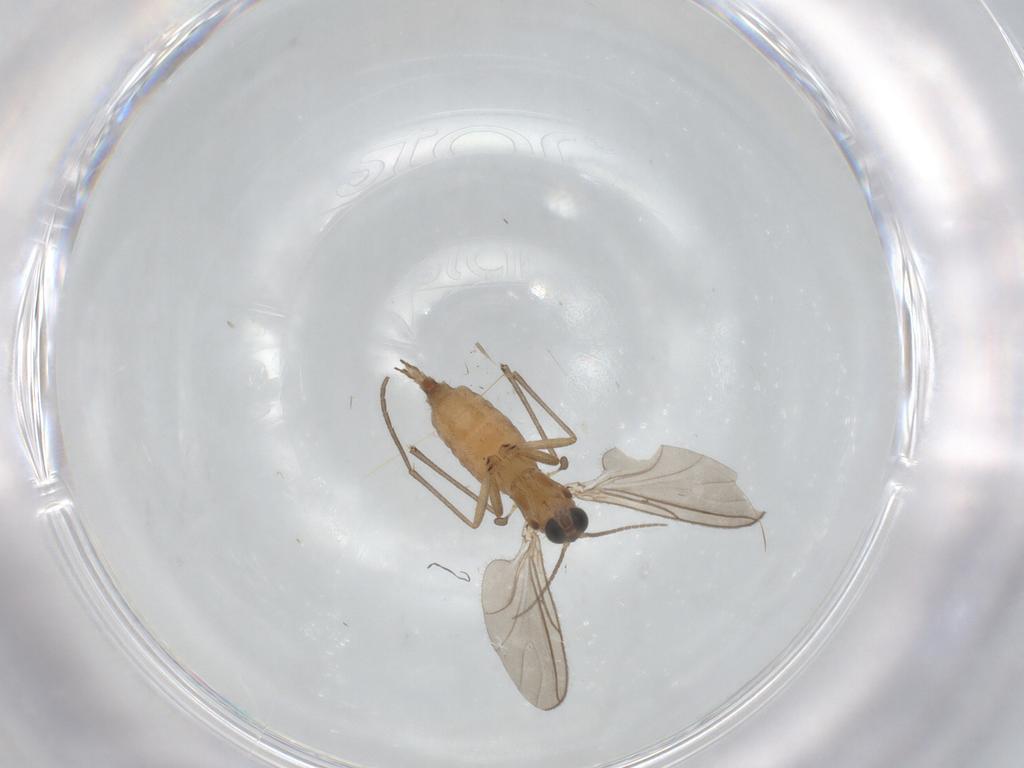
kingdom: Animalia
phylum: Arthropoda
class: Insecta
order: Diptera
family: Sciaridae
